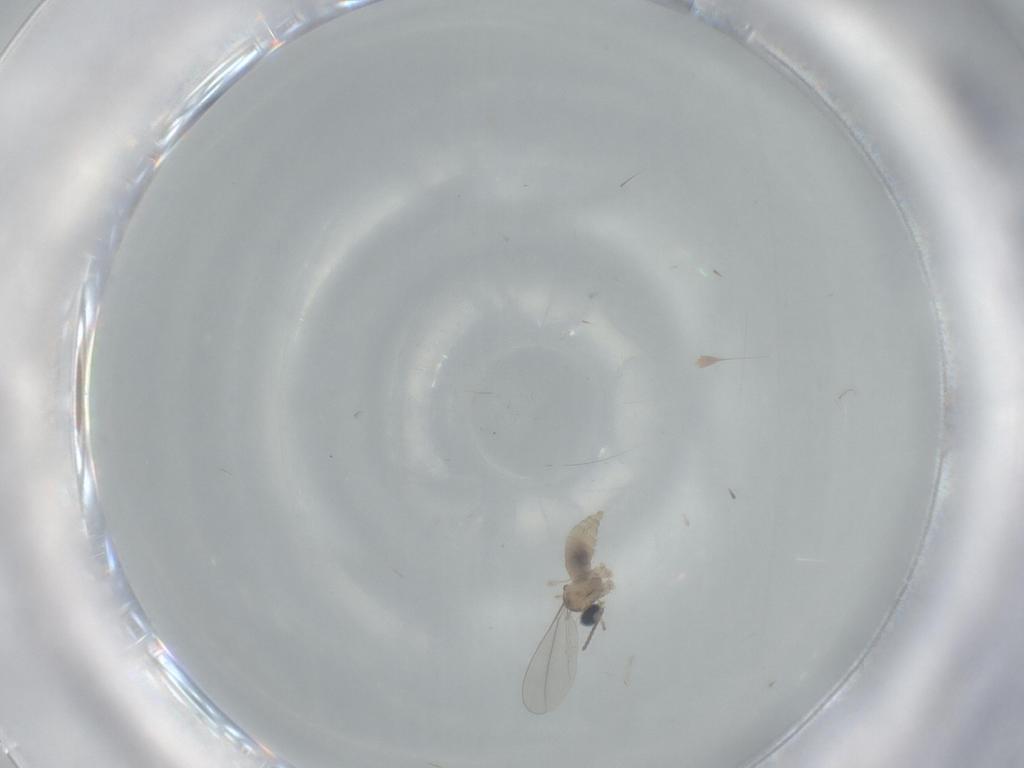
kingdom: Animalia
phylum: Arthropoda
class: Insecta
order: Diptera
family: Cecidomyiidae
